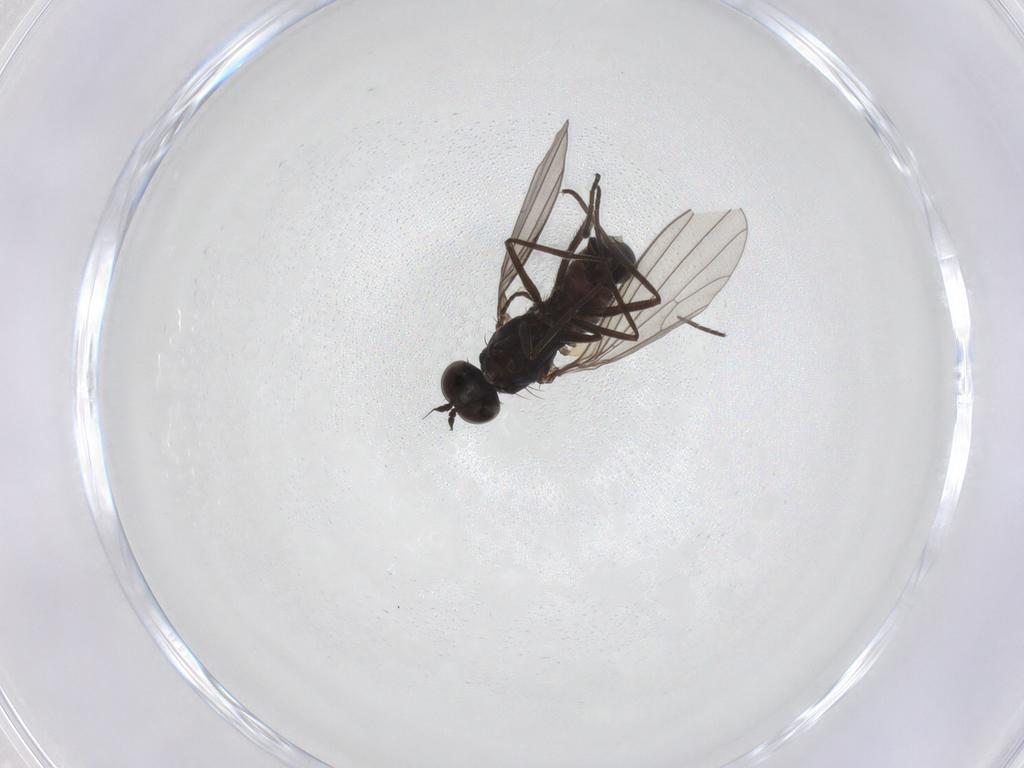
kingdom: Animalia
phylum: Arthropoda
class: Insecta
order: Diptera
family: Dolichopodidae
